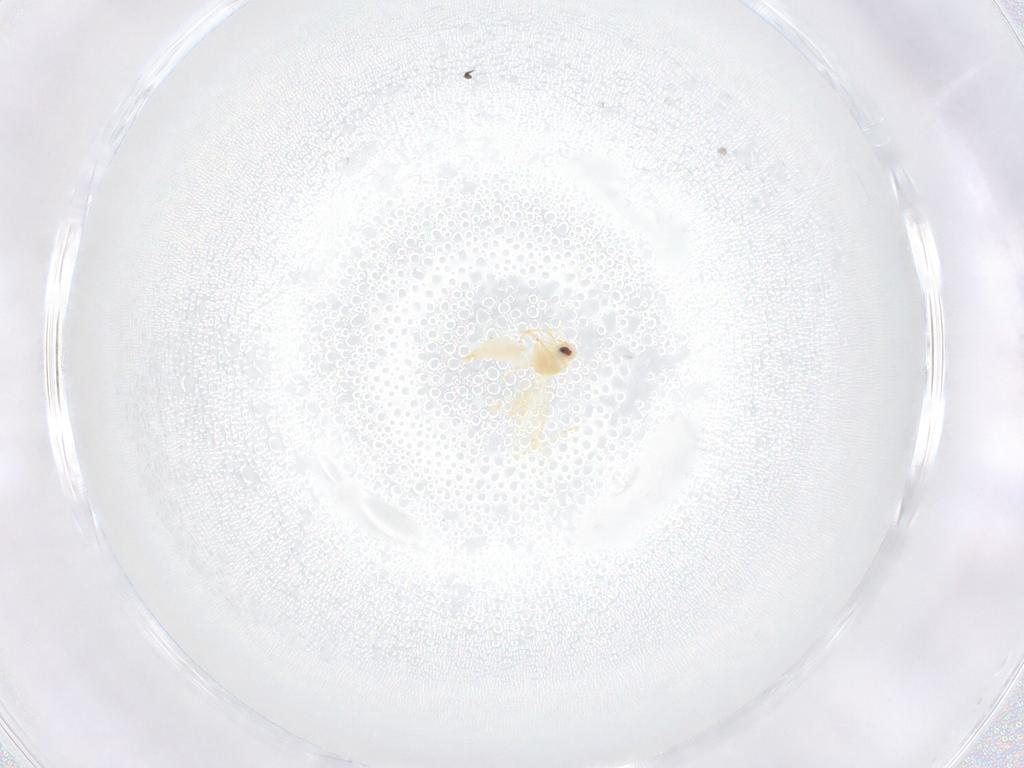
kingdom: Animalia
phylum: Arthropoda
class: Insecta
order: Hemiptera
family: Aleyrodidae
